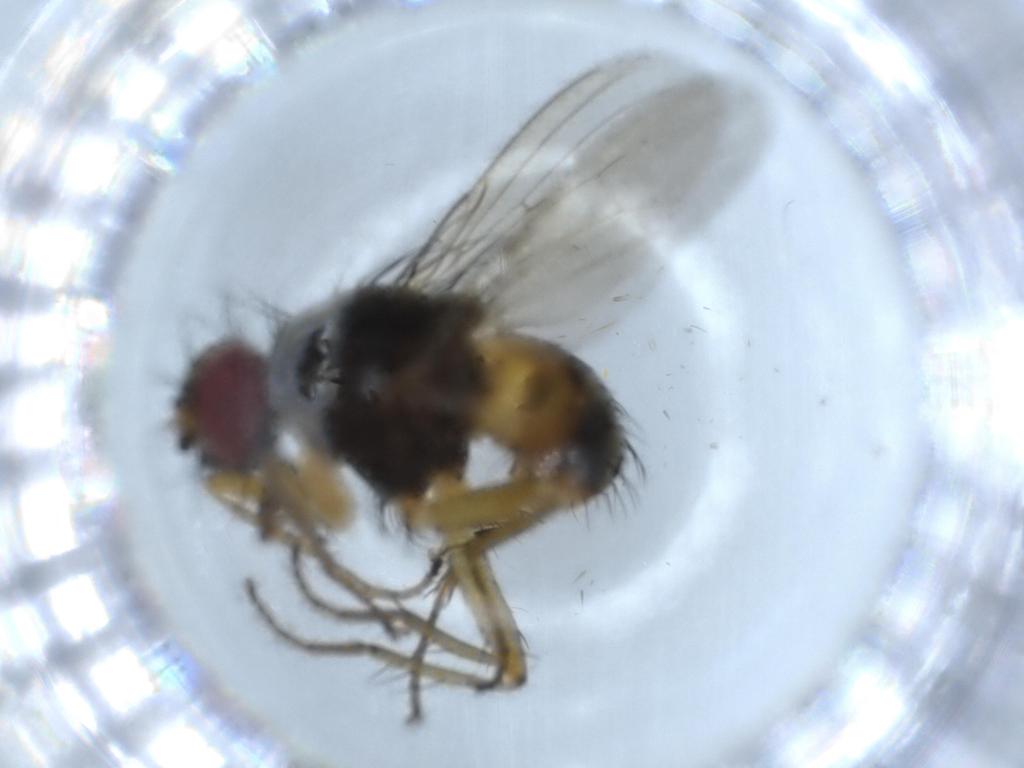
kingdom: Animalia
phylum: Arthropoda
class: Insecta
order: Diptera
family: Muscidae
